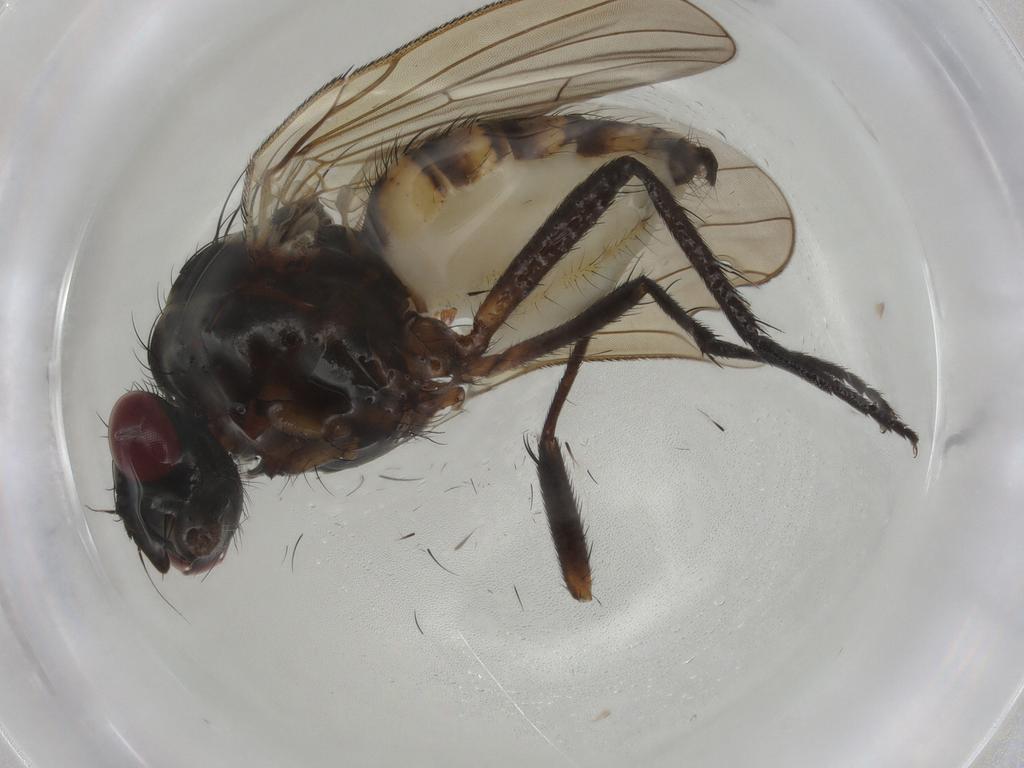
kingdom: Animalia
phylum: Arthropoda
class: Insecta
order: Diptera
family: Anthomyiidae
